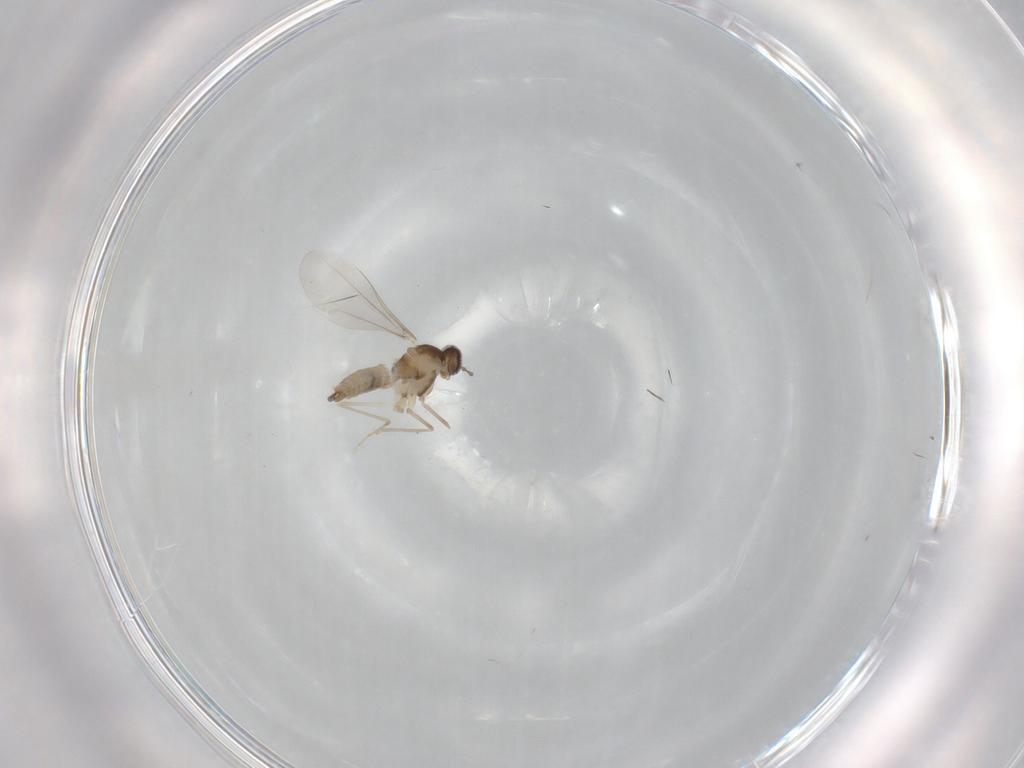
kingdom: Animalia
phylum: Arthropoda
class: Insecta
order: Diptera
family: Cecidomyiidae
